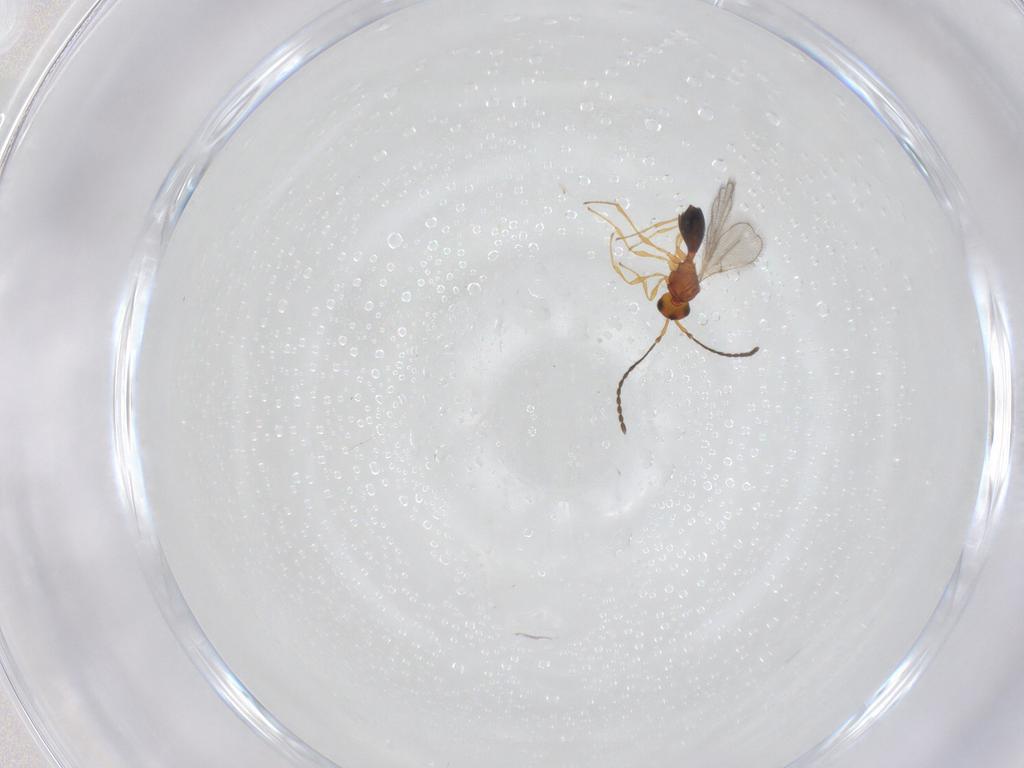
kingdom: Animalia
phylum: Arthropoda
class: Insecta
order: Hymenoptera
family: Diapriidae
